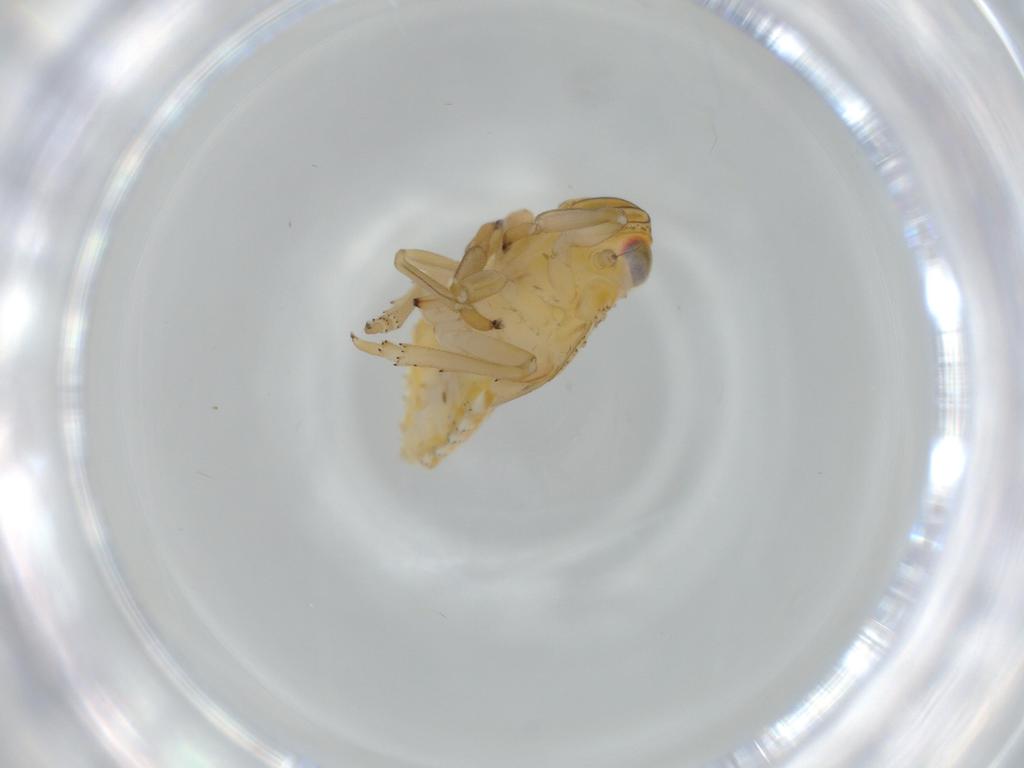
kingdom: Animalia
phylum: Arthropoda
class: Insecta
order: Hemiptera
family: Issidae
